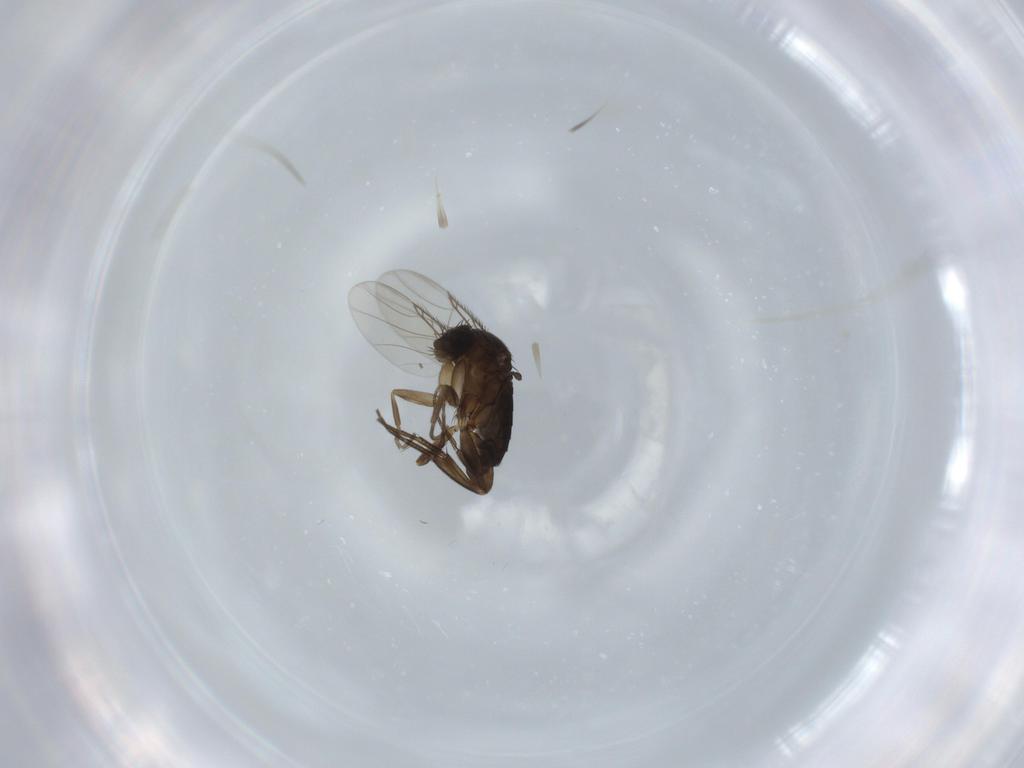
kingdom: Animalia
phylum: Arthropoda
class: Insecta
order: Diptera
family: Phoridae
